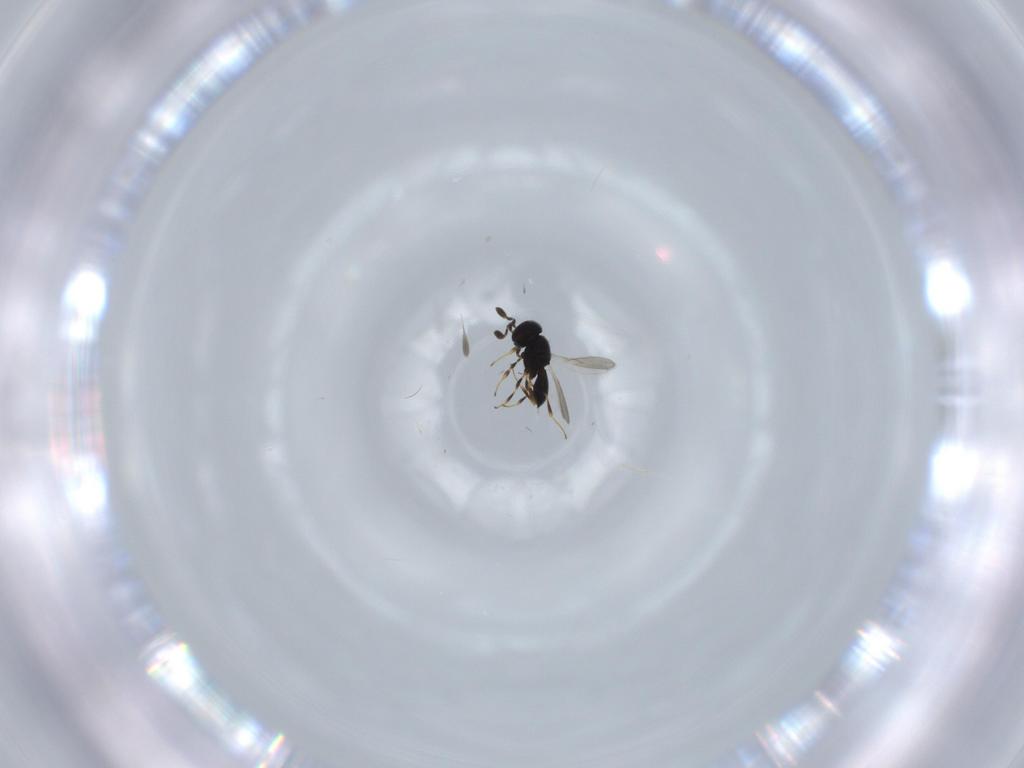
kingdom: Animalia
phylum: Arthropoda
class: Insecta
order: Hymenoptera
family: Scelionidae
